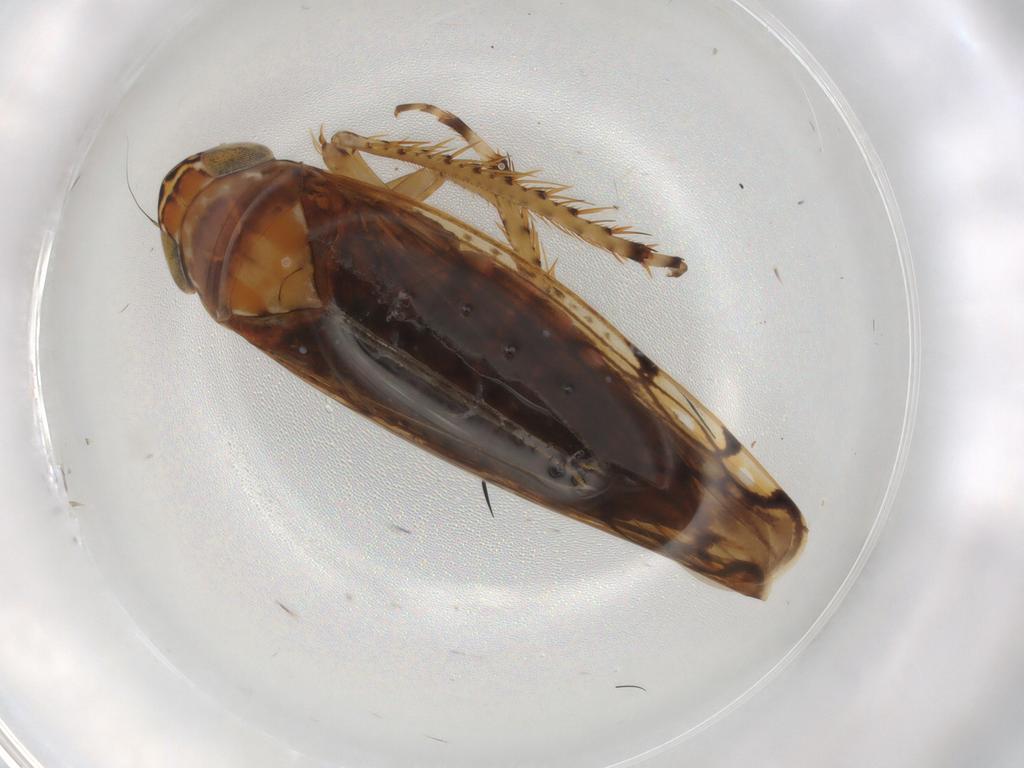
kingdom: Animalia
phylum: Arthropoda
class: Insecta
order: Hemiptera
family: Cicadellidae
